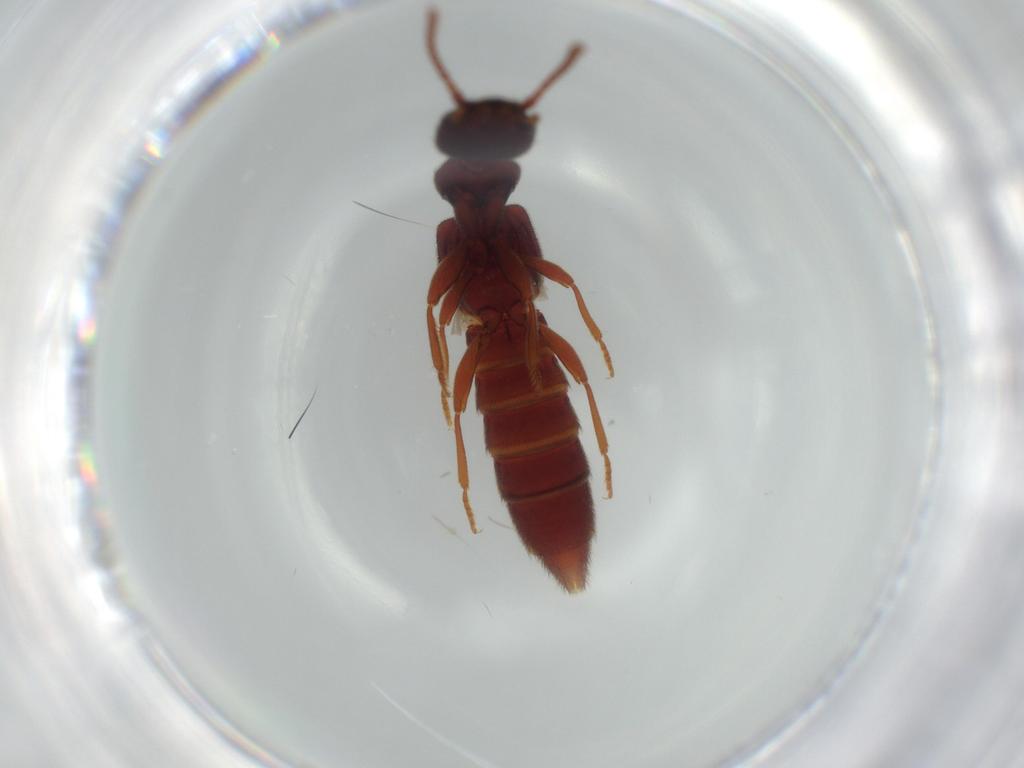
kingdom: Animalia
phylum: Arthropoda
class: Insecta
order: Coleoptera
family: Staphylinidae
